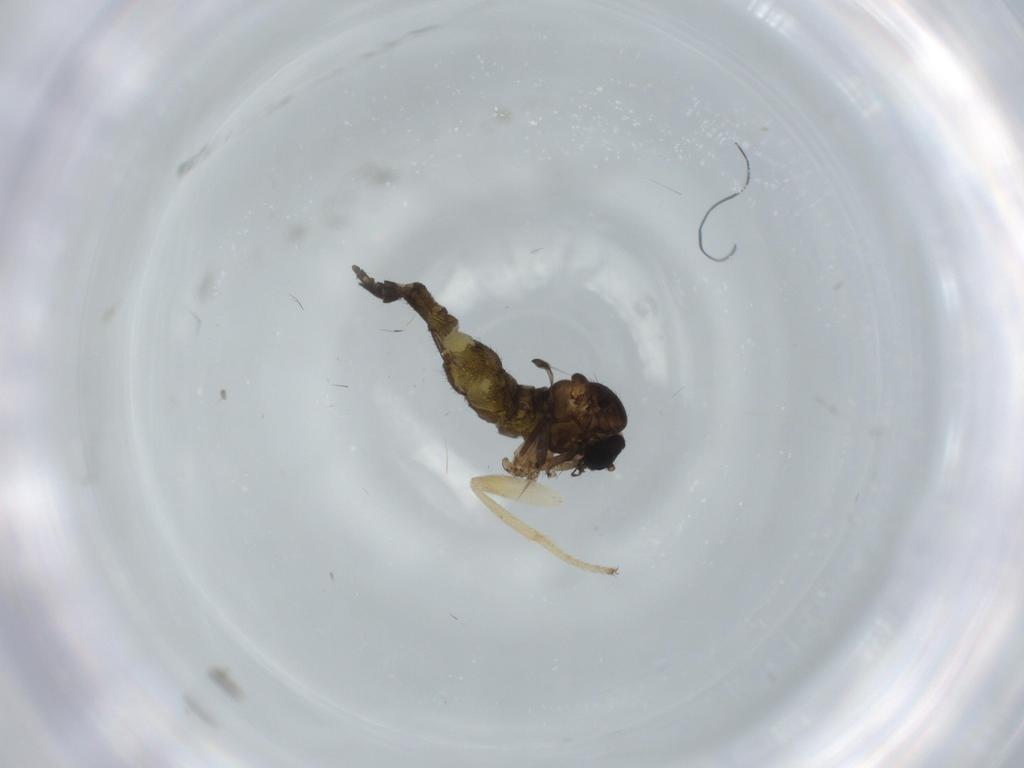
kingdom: Animalia
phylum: Arthropoda
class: Insecta
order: Diptera
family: Sciaridae
